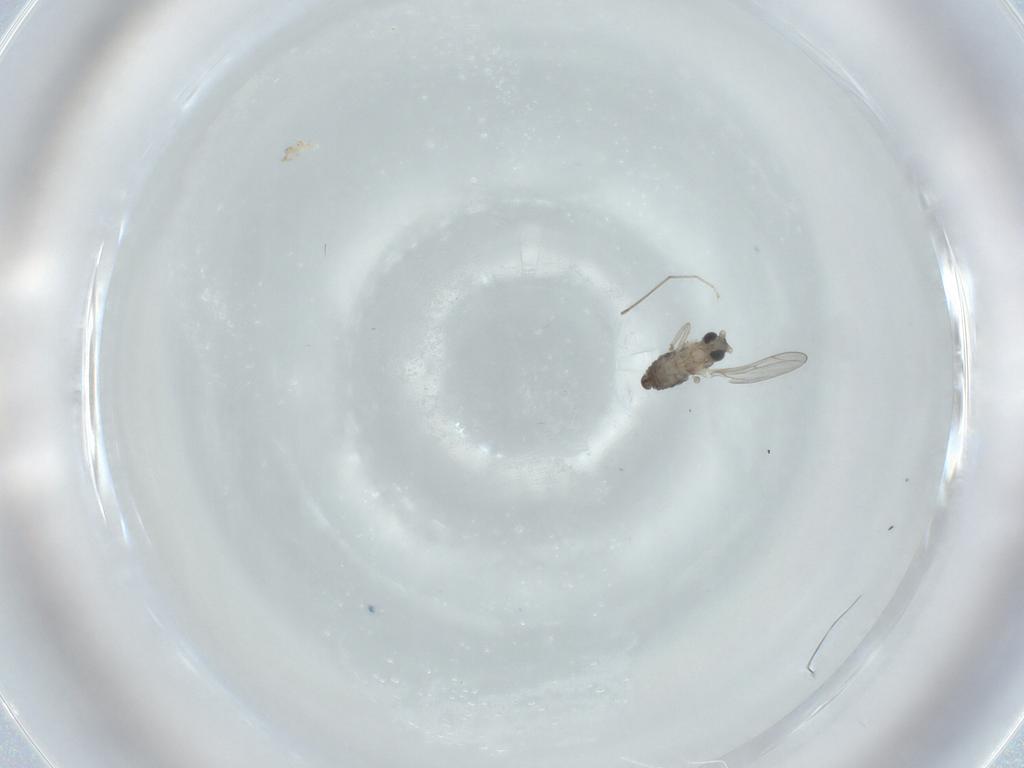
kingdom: Animalia
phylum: Arthropoda
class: Insecta
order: Diptera
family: Cecidomyiidae
